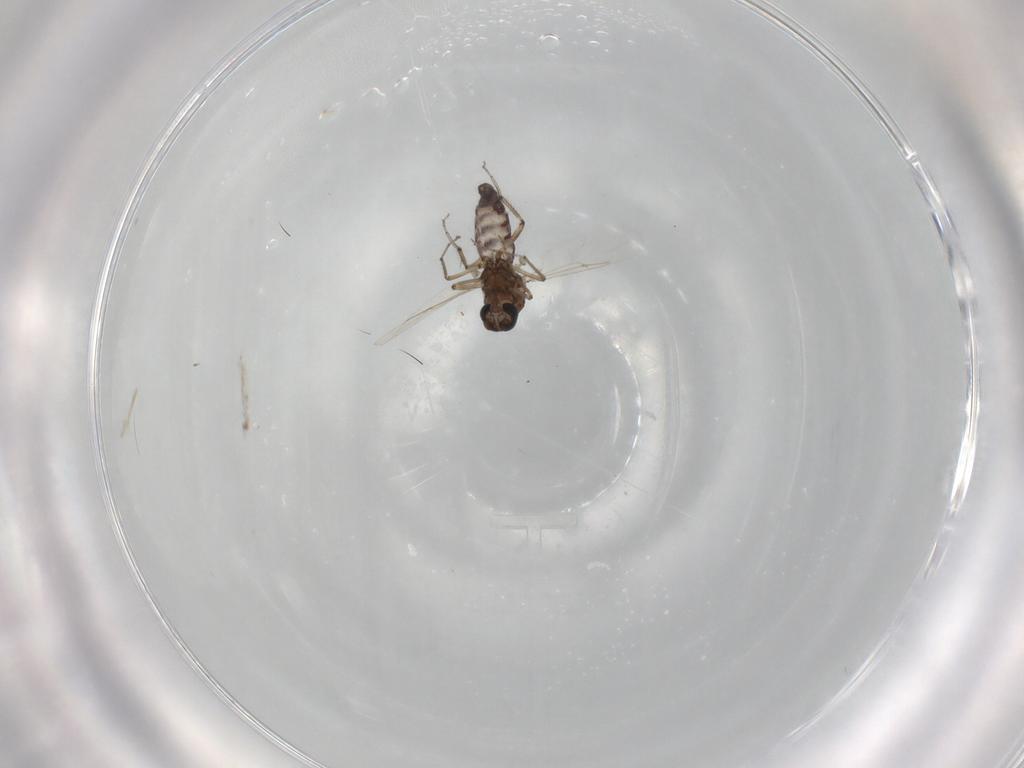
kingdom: Animalia
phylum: Arthropoda
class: Insecta
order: Diptera
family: Ceratopogonidae
